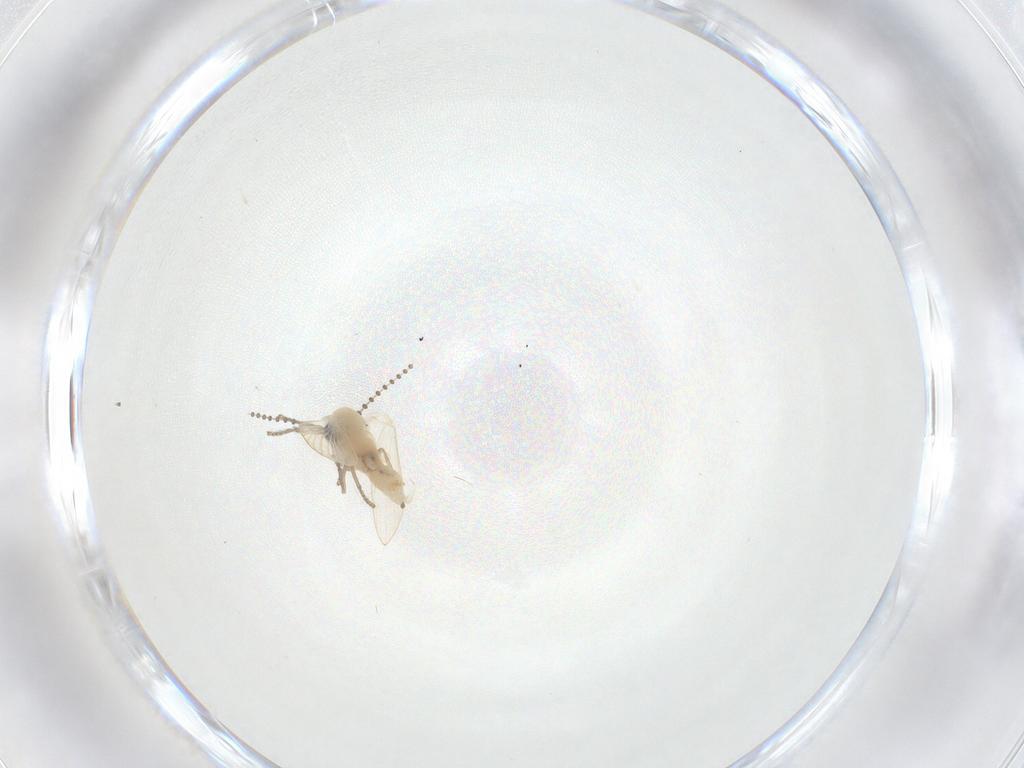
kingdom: Animalia
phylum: Arthropoda
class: Insecta
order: Diptera
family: Psychodidae
